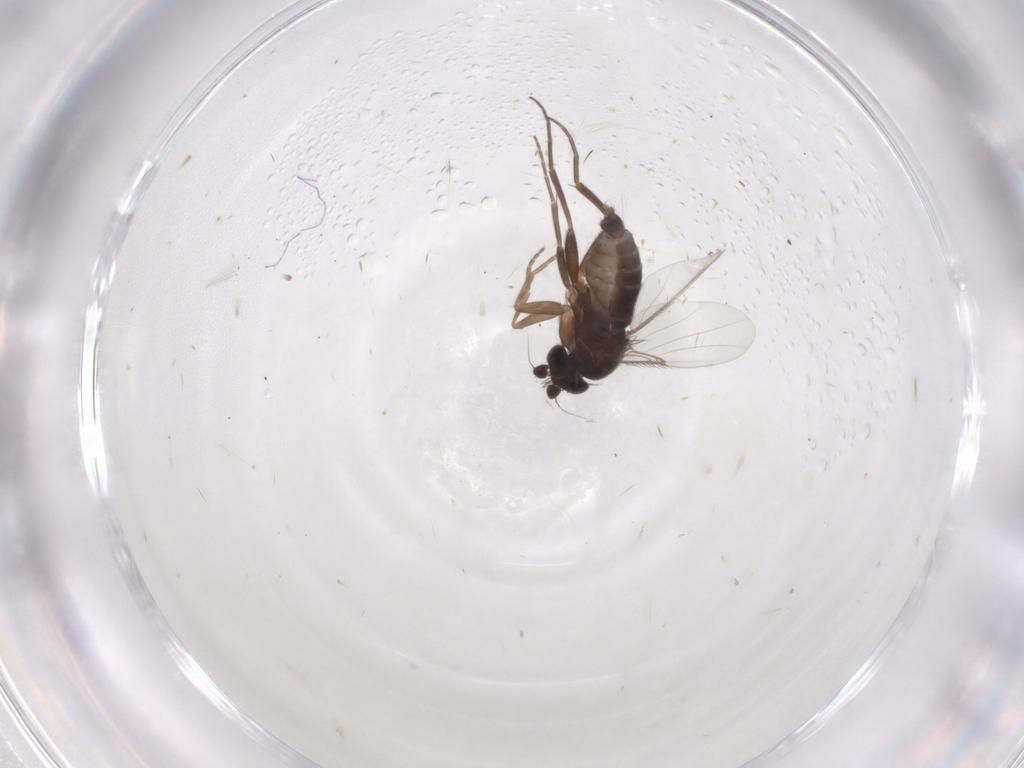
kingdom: Animalia
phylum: Arthropoda
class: Insecta
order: Diptera
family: Phoridae
